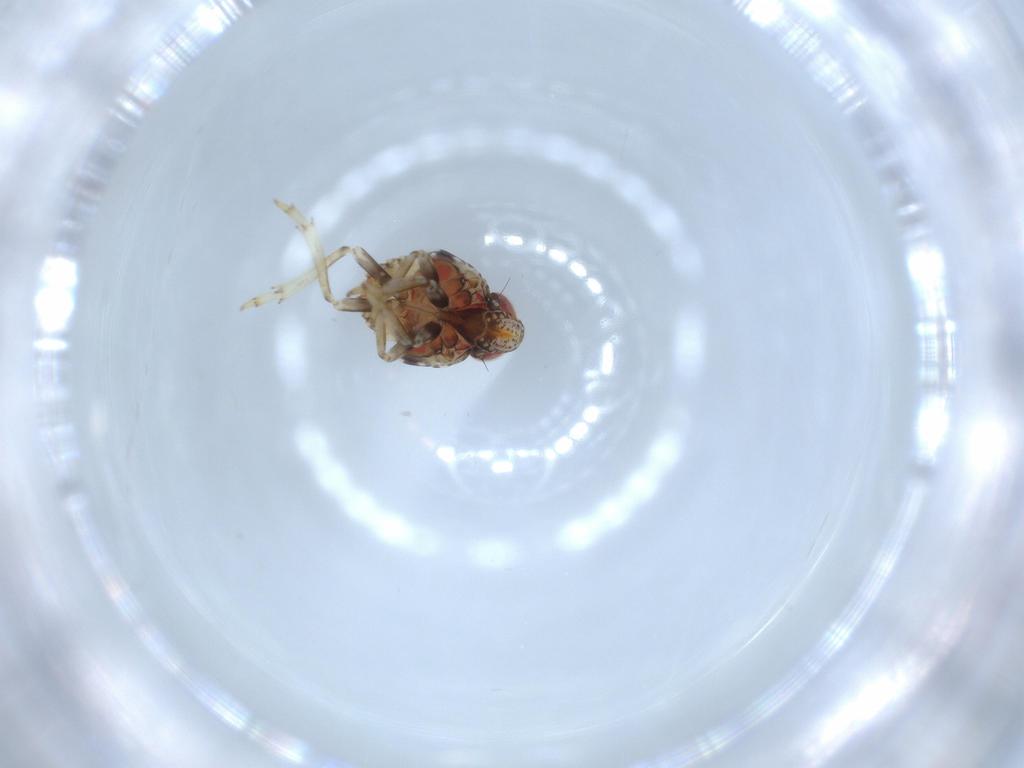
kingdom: Animalia
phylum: Arthropoda
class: Insecta
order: Hemiptera
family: Issidae
